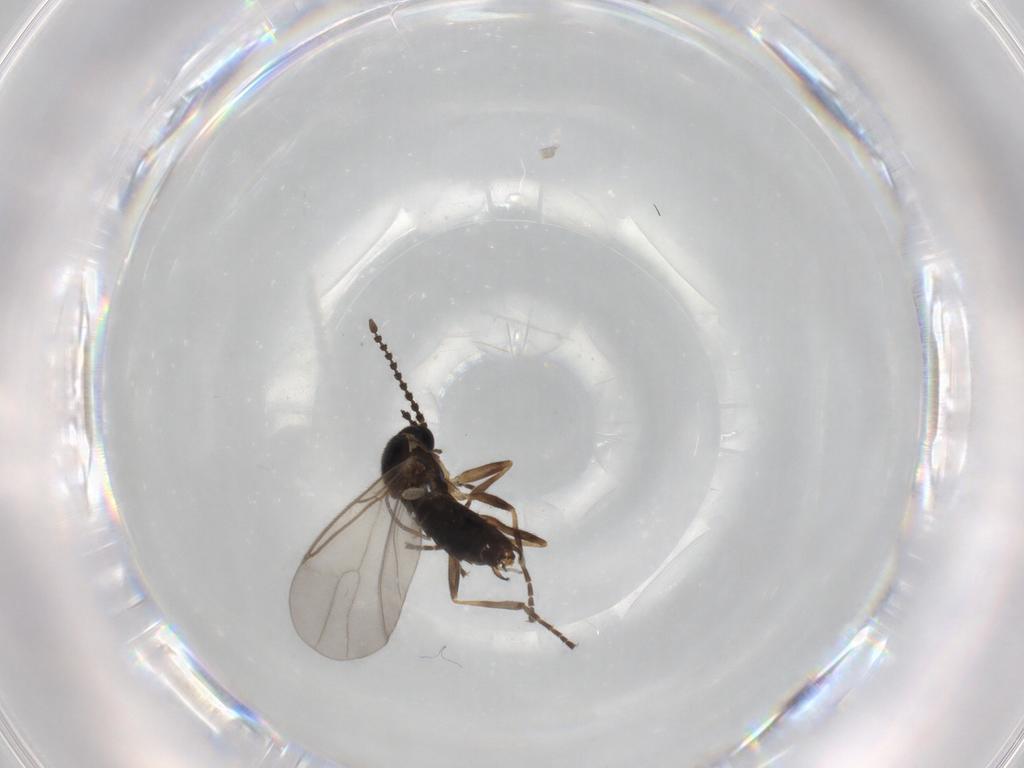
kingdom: Animalia
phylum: Arthropoda
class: Insecta
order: Diptera
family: Scatopsidae
